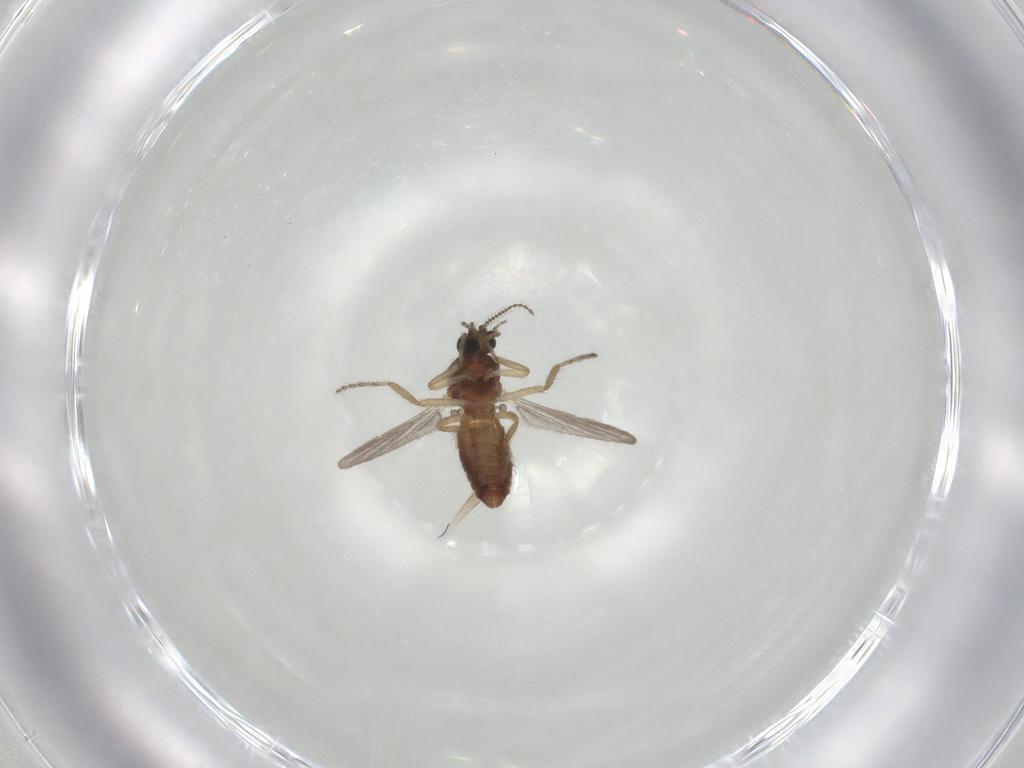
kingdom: Animalia
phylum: Arthropoda
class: Insecta
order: Diptera
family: Ceratopogonidae
